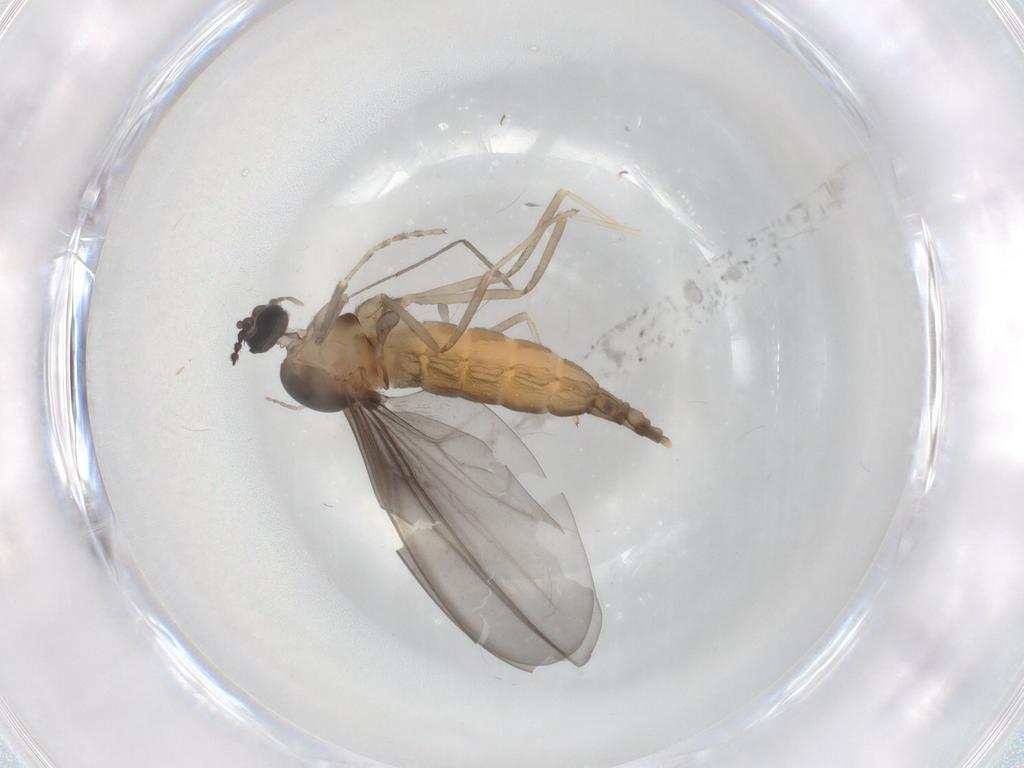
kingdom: Animalia
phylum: Arthropoda
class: Insecta
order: Diptera
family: Cecidomyiidae
